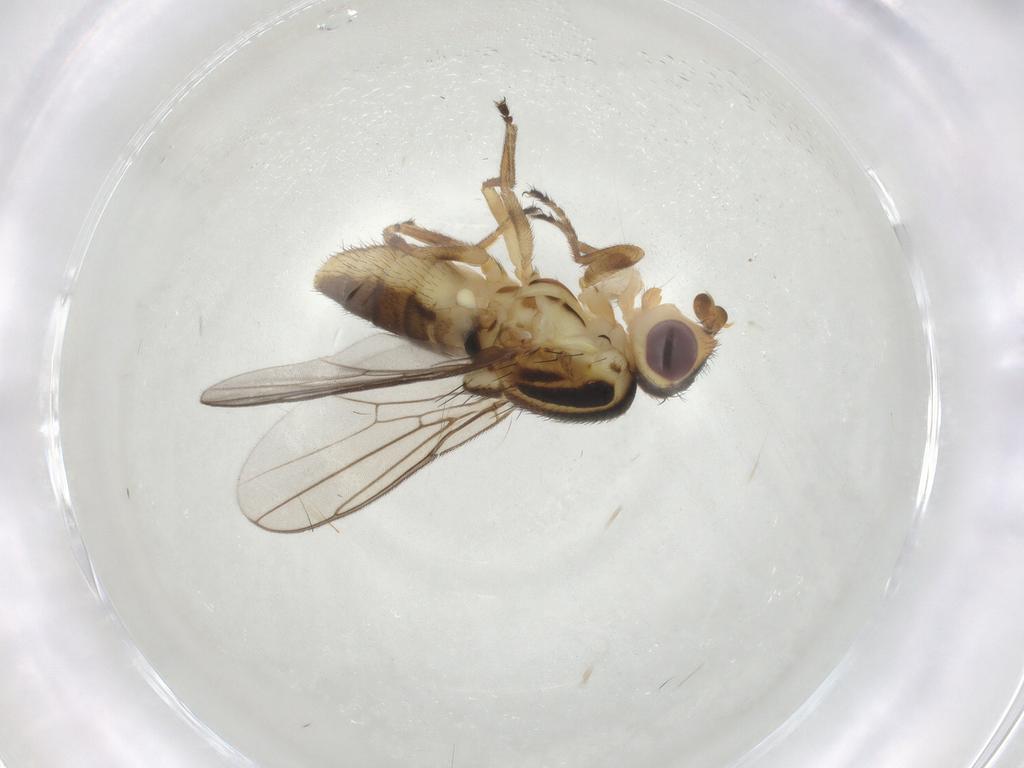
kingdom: Animalia
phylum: Arthropoda
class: Insecta
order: Diptera
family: Chloropidae
